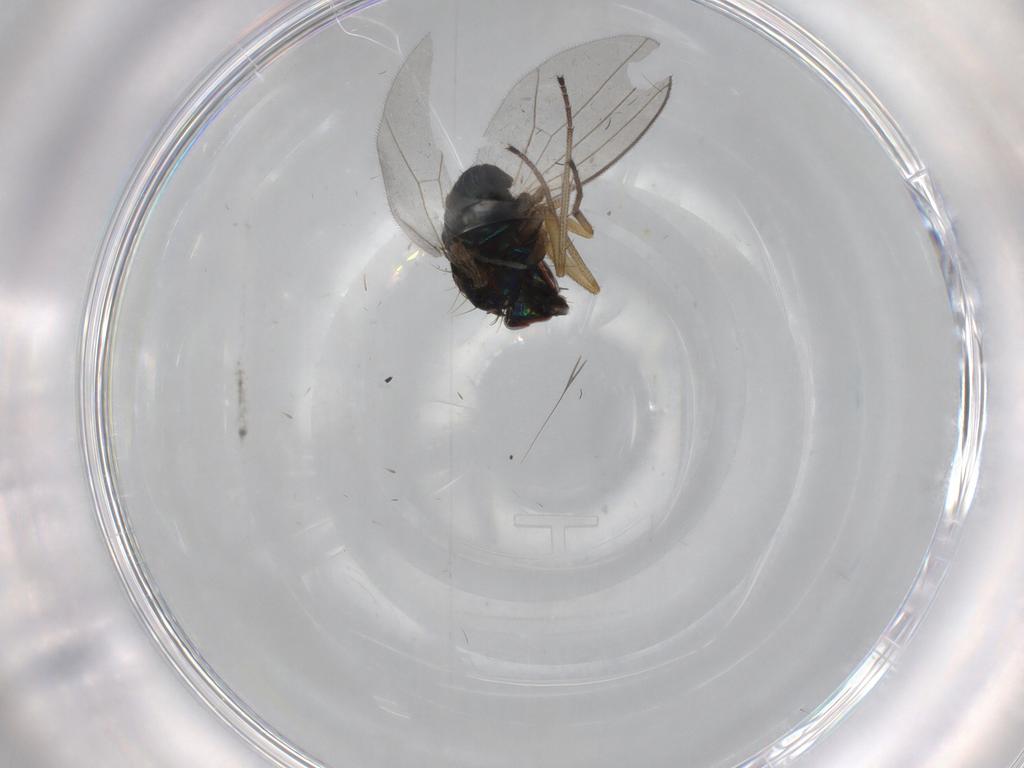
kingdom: Animalia
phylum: Arthropoda
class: Insecta
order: Diptera
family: Dolichopodidae
